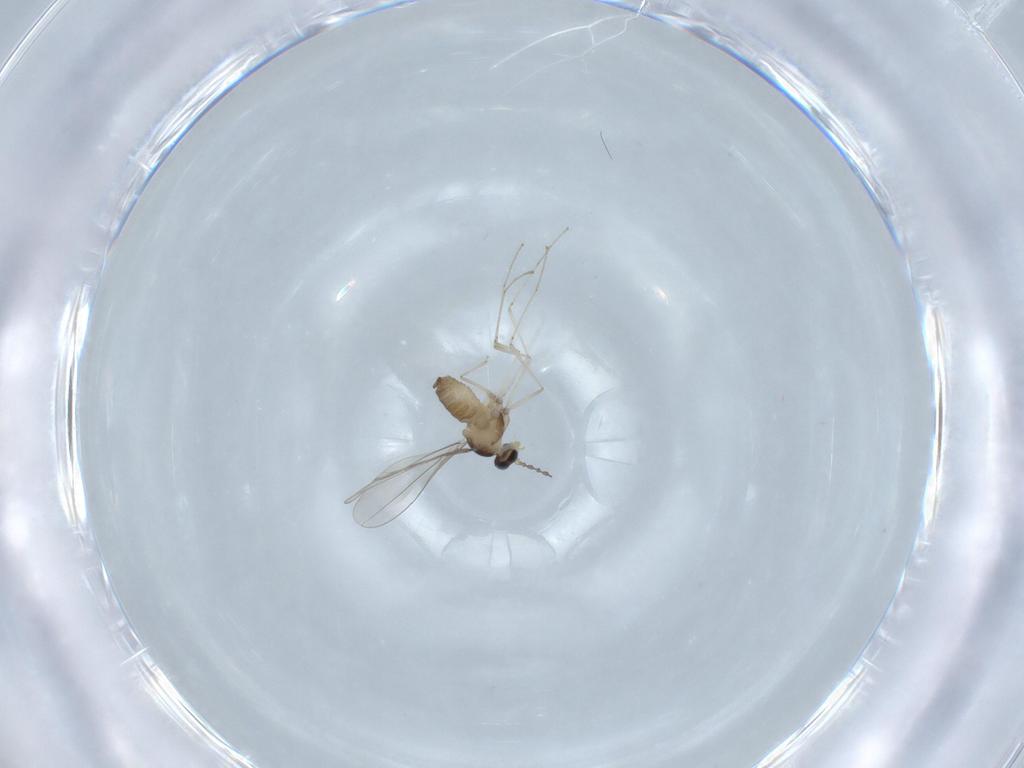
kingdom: Animalia
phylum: Arthropoda
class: Insecta
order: Diptera
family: Cecidomyiidae
